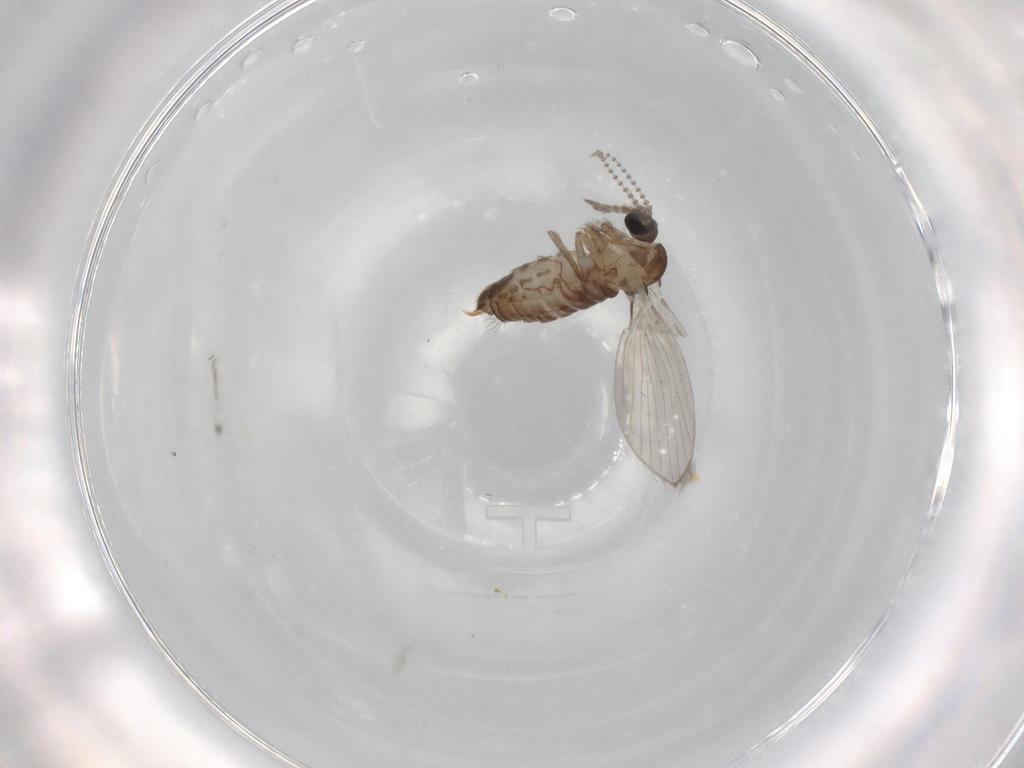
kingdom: Animalia
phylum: Arthropoda
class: Insecta
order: Diptera
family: Psychodidae
